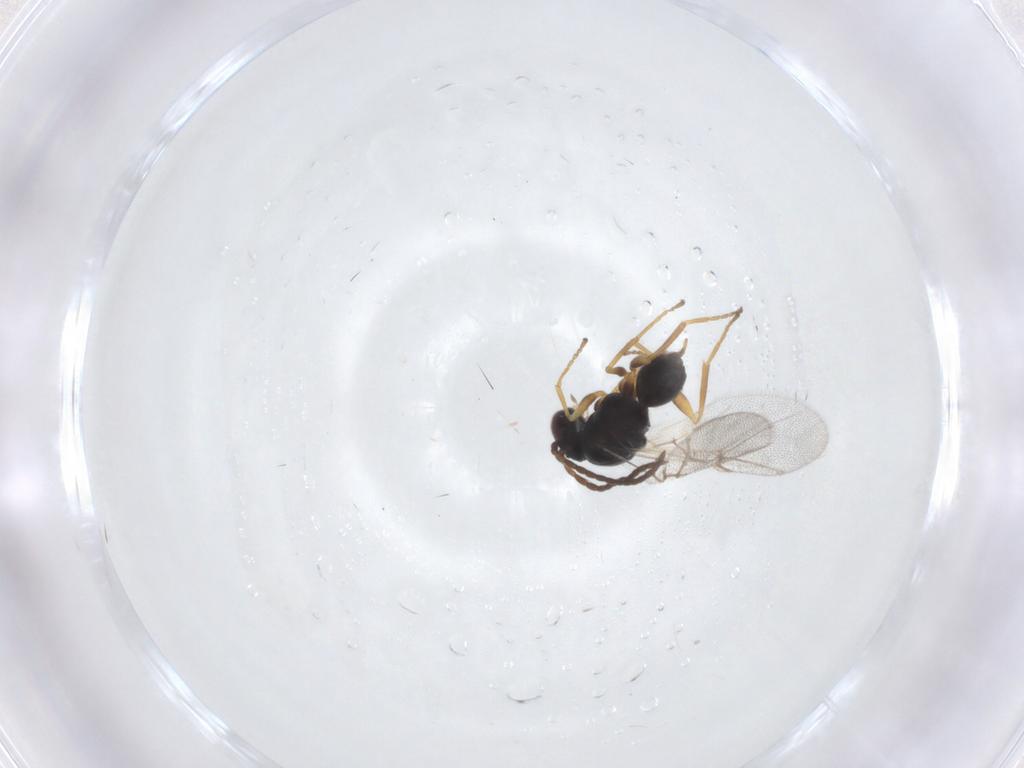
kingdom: Animalia
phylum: Arthropoda
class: Insecta
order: Hymenoptera
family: Cynipidae
